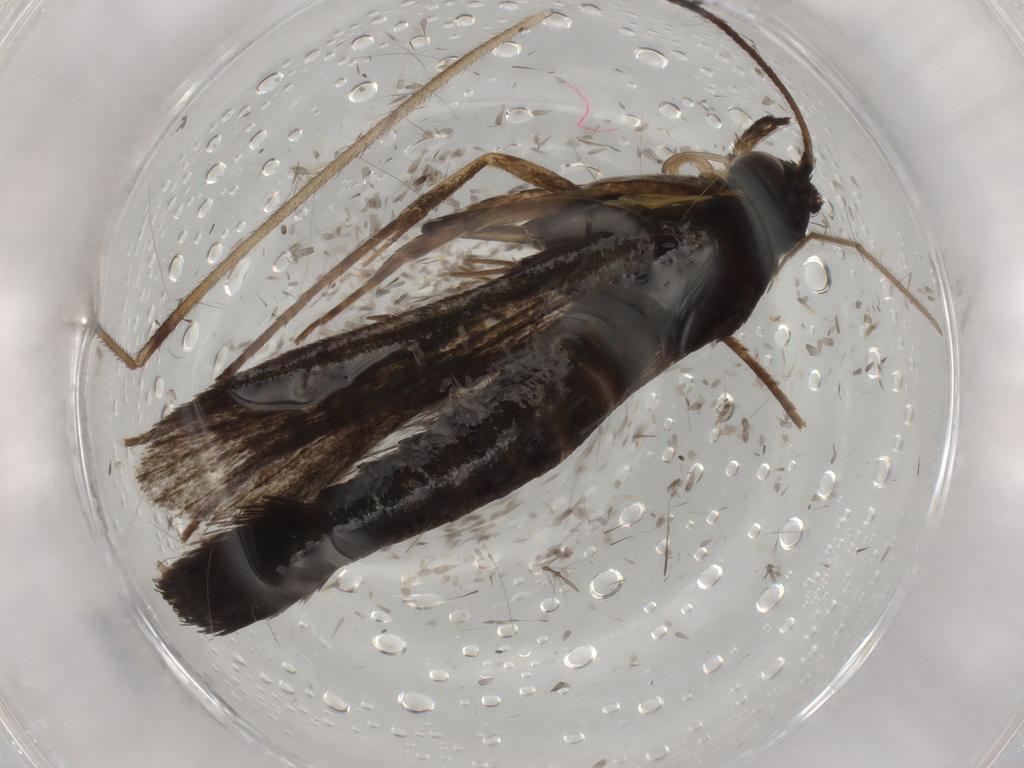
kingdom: Animalia
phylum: Arthropoda
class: Insecta
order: Lepidoptera
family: Sesiidae
